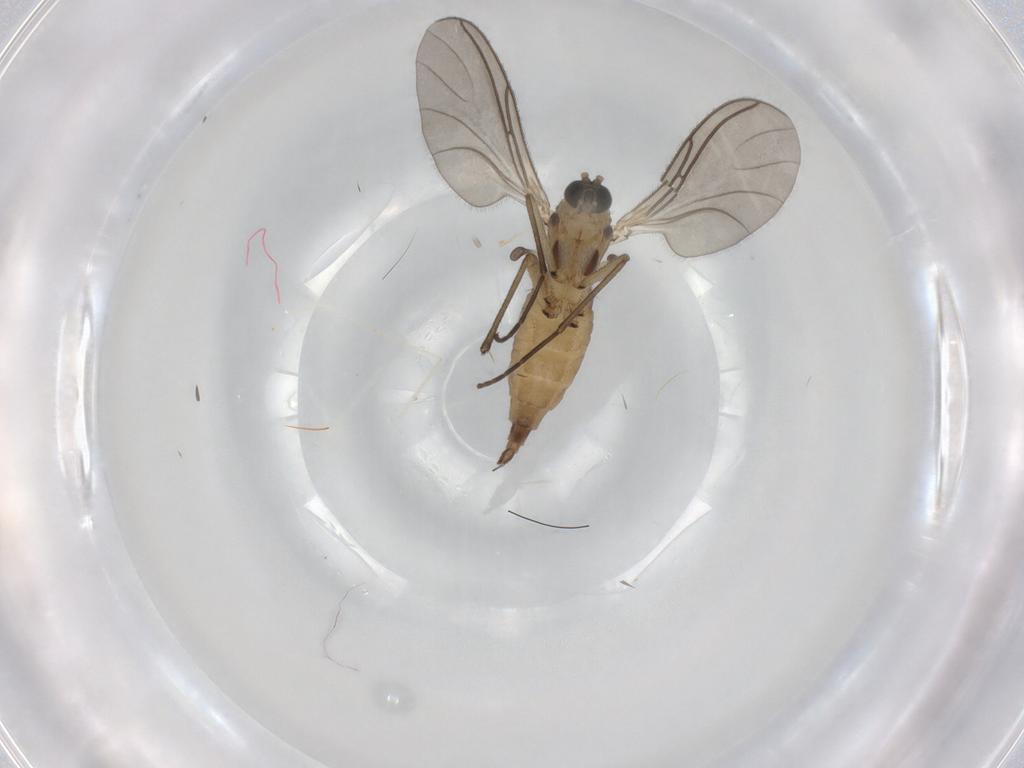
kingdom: Animalia
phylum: Arthropoda
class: Insecta
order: Diptera
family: Sciaridae
